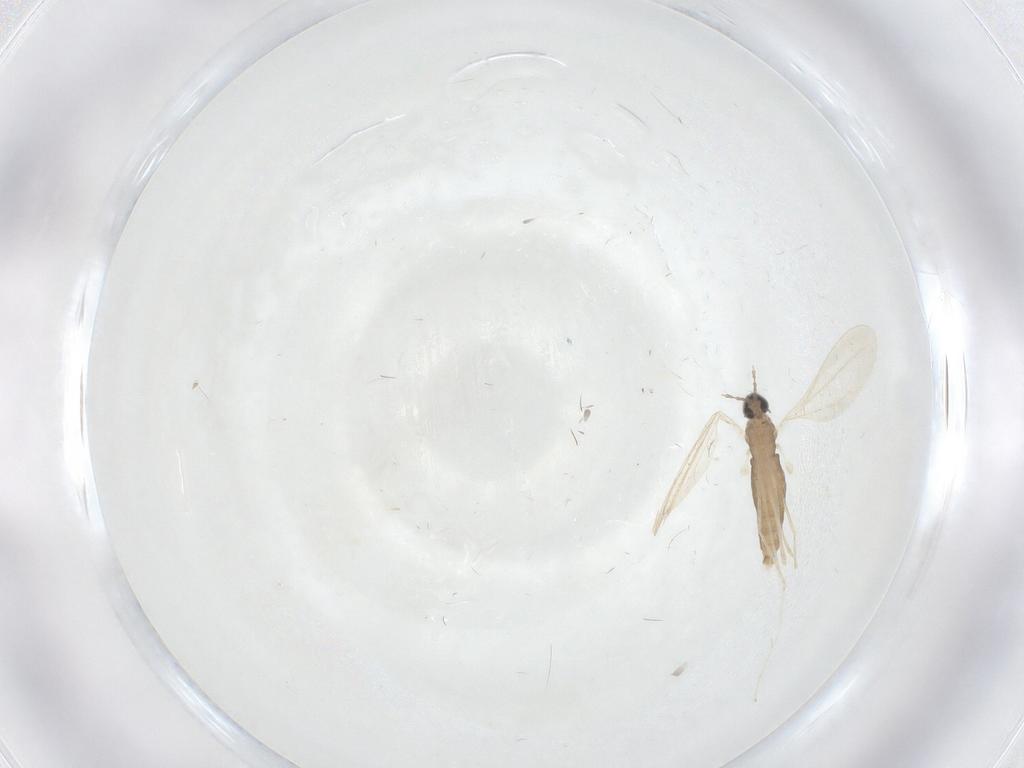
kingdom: Animalia
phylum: Arthropoda
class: Insecta
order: Diptera
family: Cecidomyiidae
